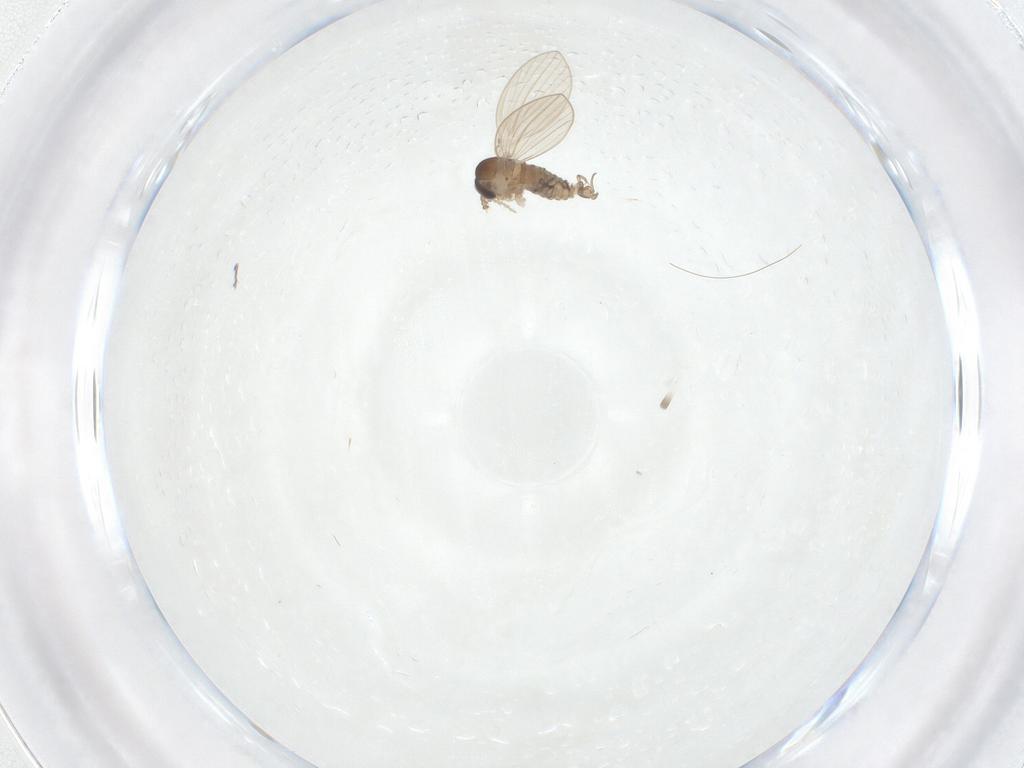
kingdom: Animalia
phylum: Arthropoda
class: Insecta
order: Diptera
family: Psychodidae
